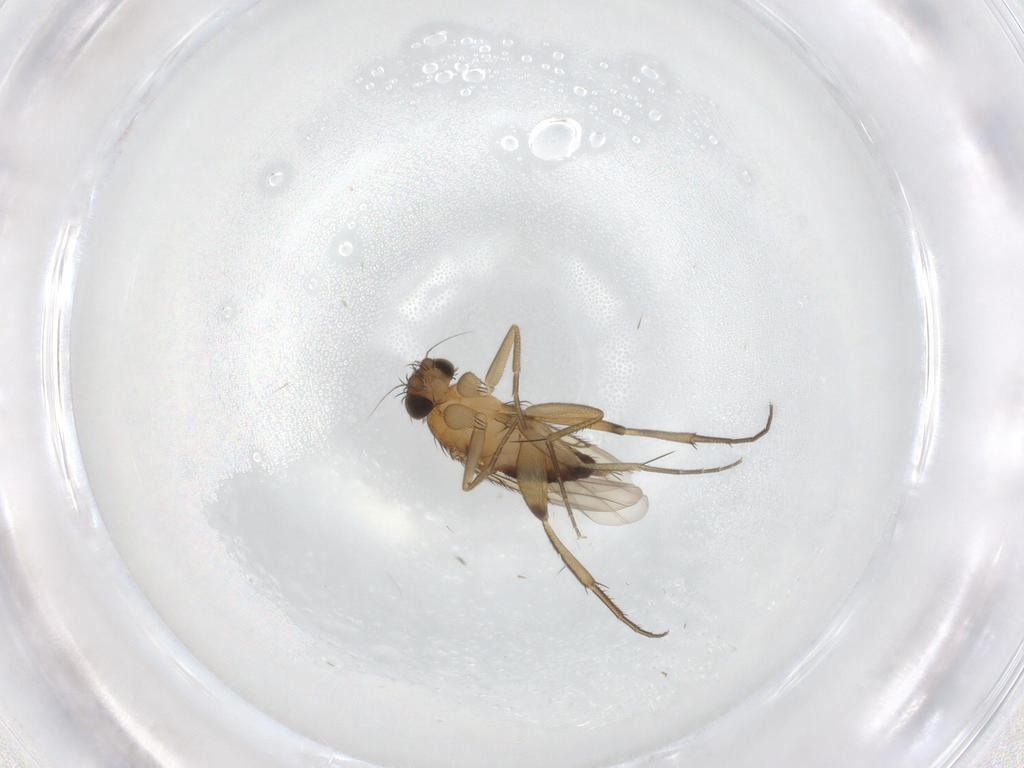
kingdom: Animalia
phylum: Arthropoda
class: Insecta
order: Diptera
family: Phoridae
